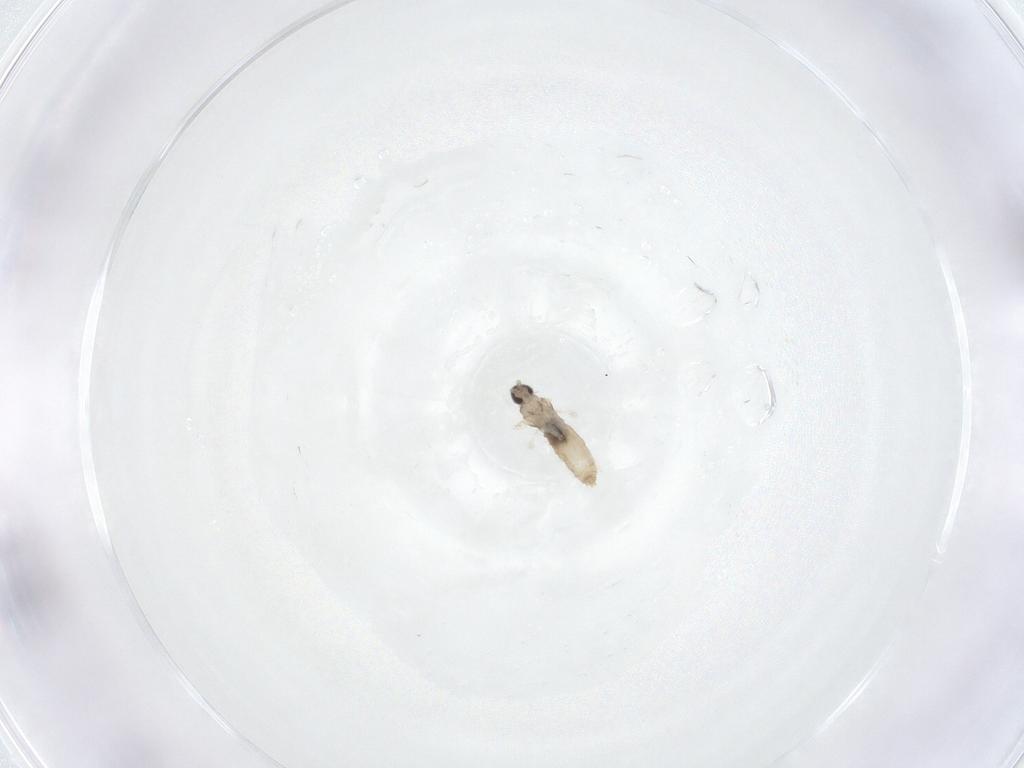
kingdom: Animalia
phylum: Arthropoda
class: Insecta
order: Diptera
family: Cecidomyiidae
